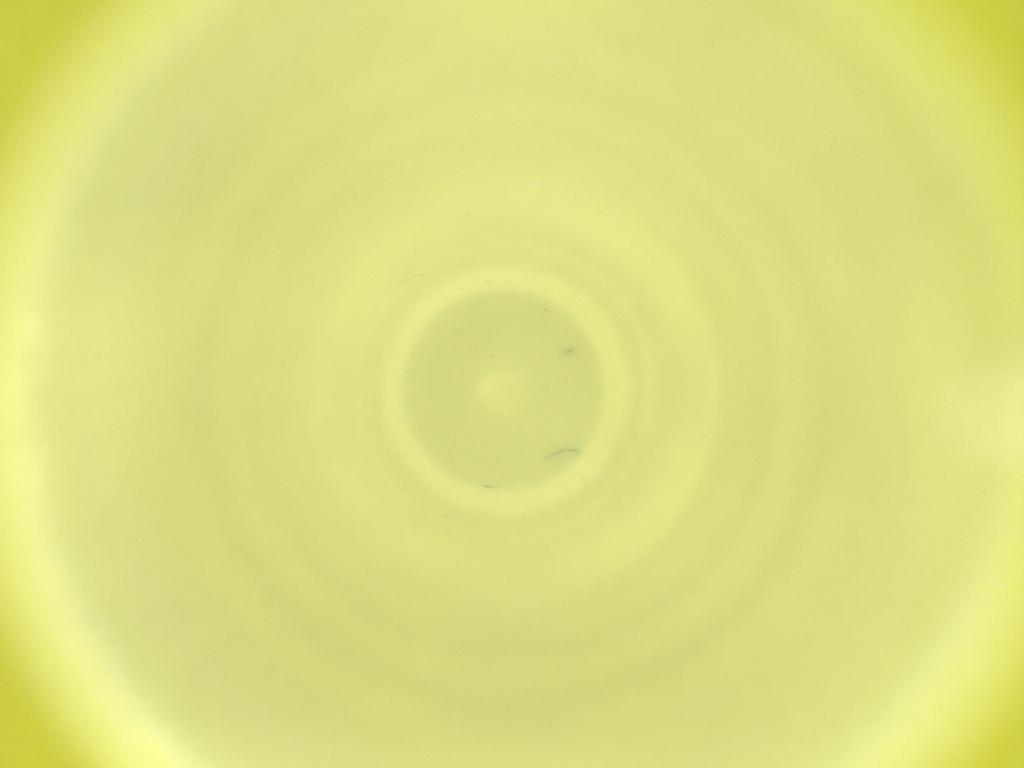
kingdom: Animalia
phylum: Arthropoda
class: Insecta
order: Diptera
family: Cecidomyiidae
